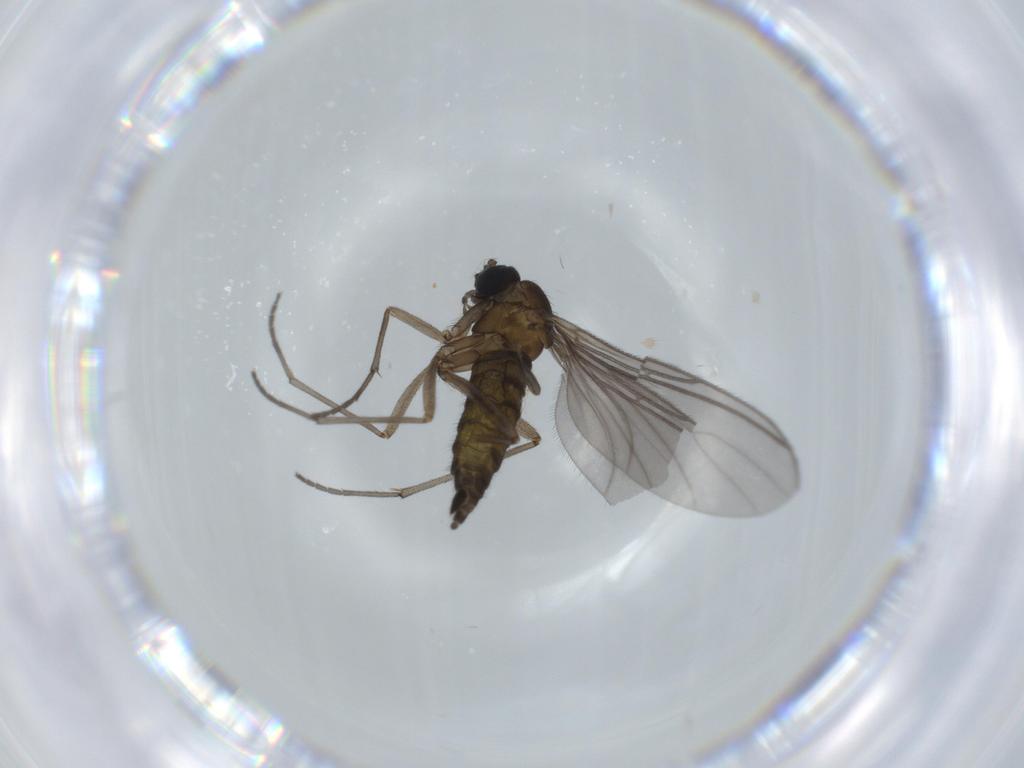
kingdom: Animalia
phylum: Arthropoda
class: Insecta
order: Diptera
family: Sciaridae
